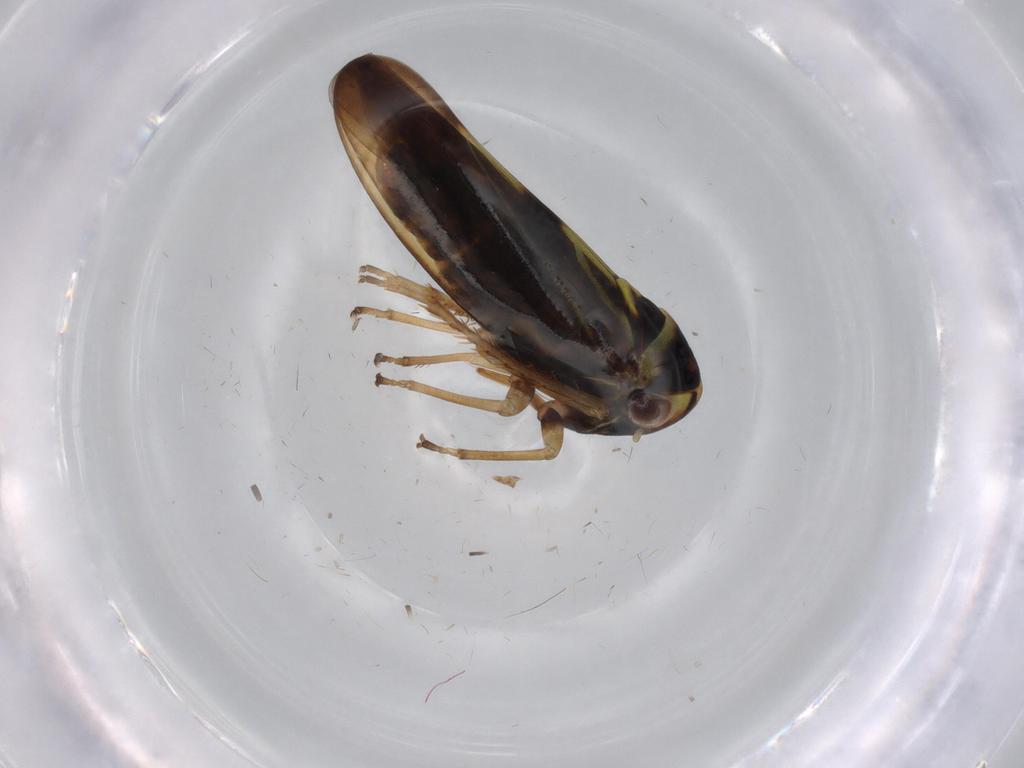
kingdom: Animalia
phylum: Arthropoda
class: Insecta
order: Hemiptera
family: Cicadellidae
